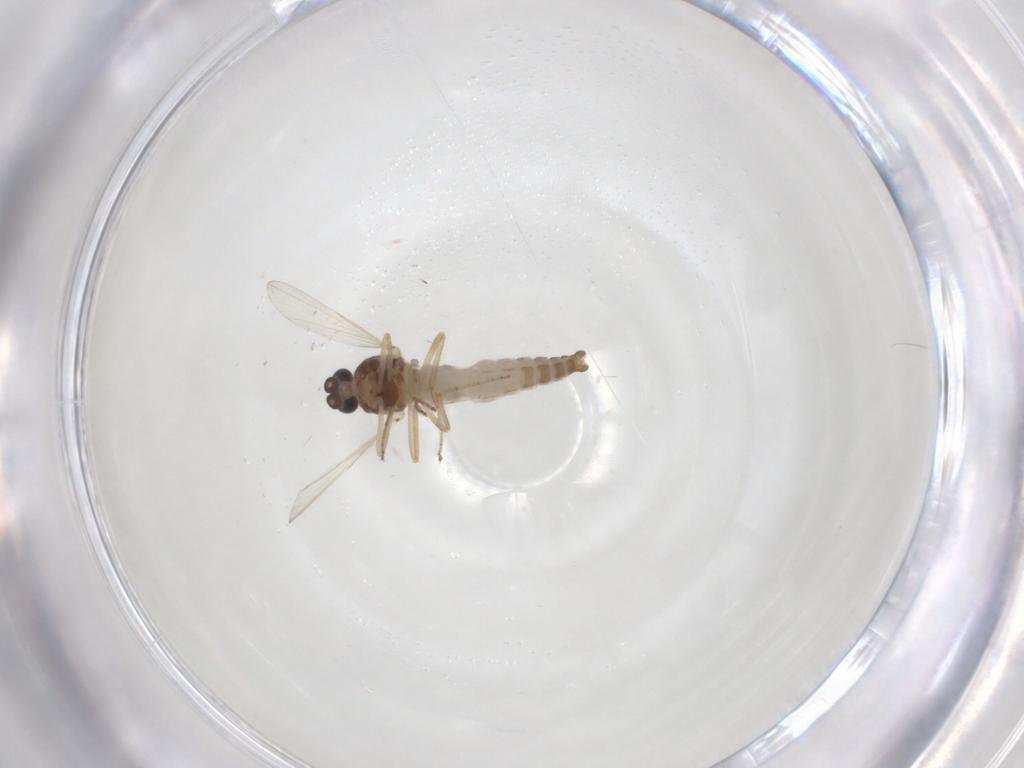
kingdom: Animalia
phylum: Arthropoda
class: Insecta
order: Diptera
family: Ceratopogonidae
